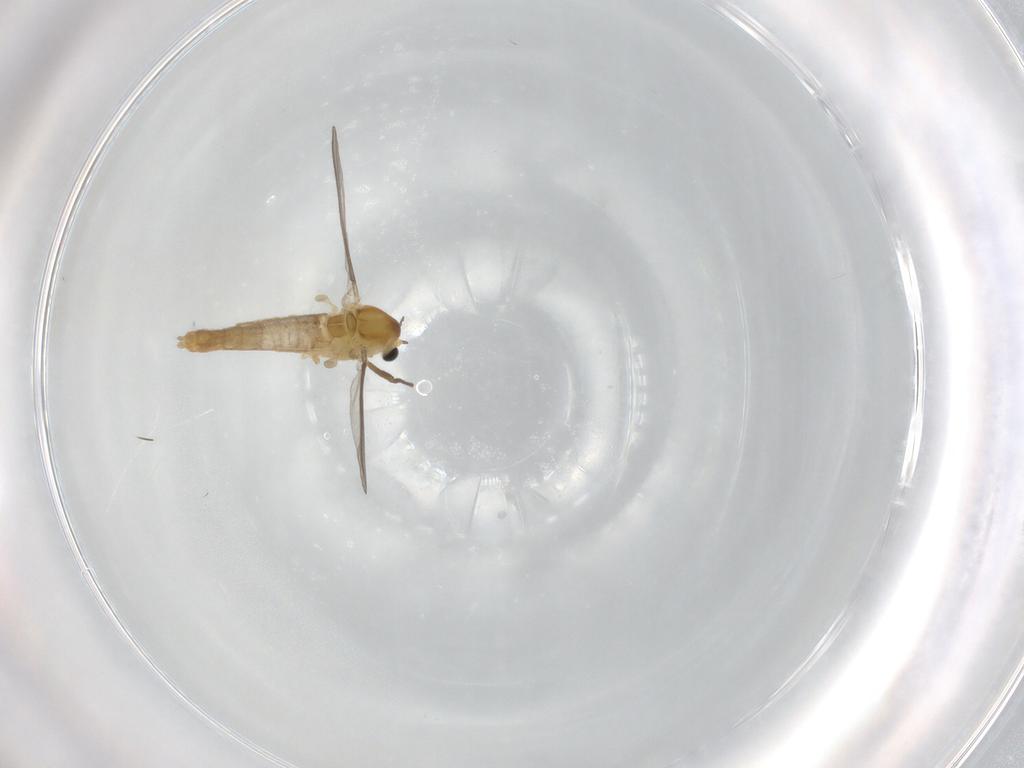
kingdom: Animalia
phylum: Arthropoda
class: Insecta
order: Diptera
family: Chironomidae
